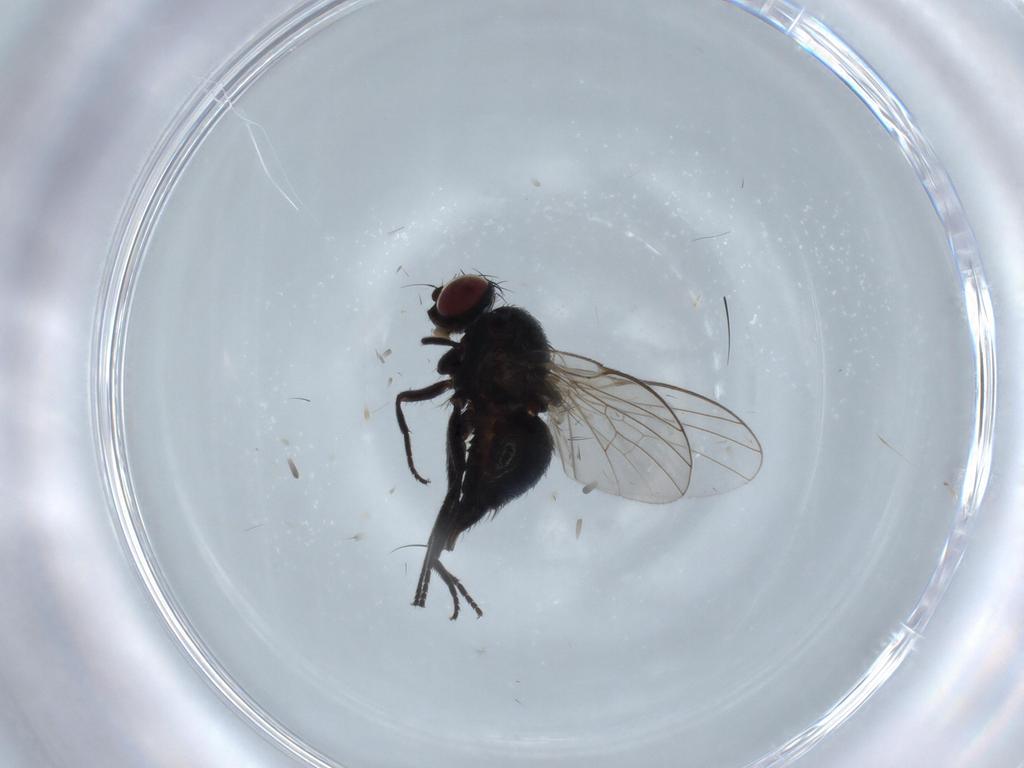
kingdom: Animalia
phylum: Arthropoda
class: Insecta
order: Diptera
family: Agromyzidae
